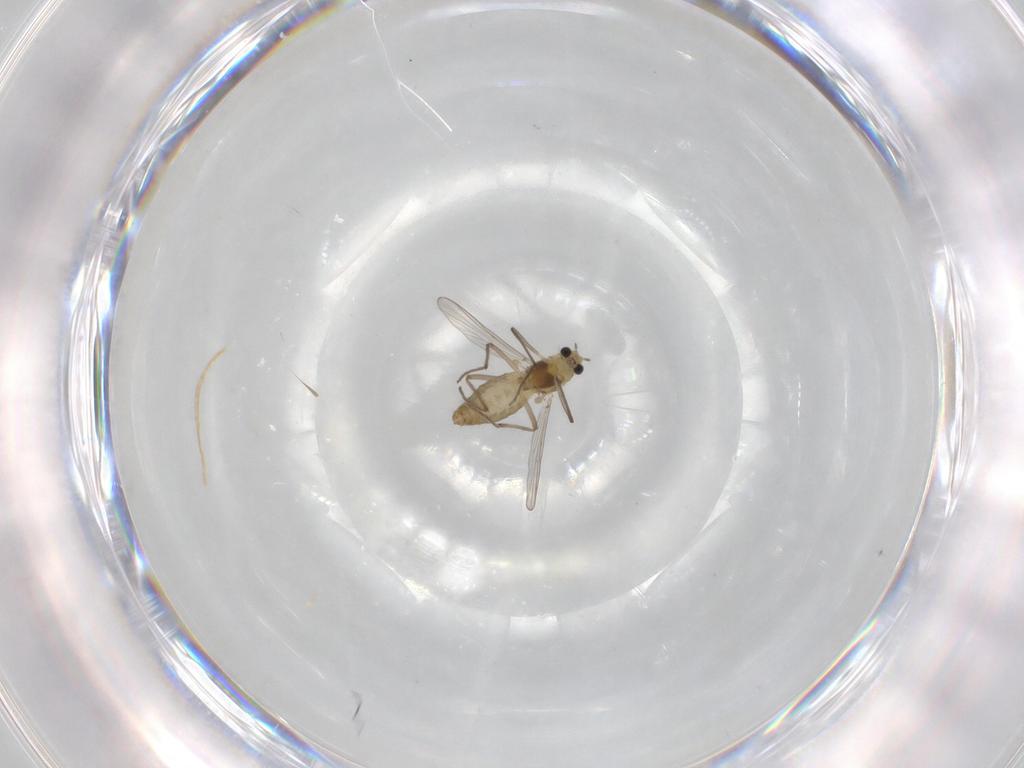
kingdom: Animalia
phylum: Arthropoda
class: Insecta
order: Diptera
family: Chironomidae
